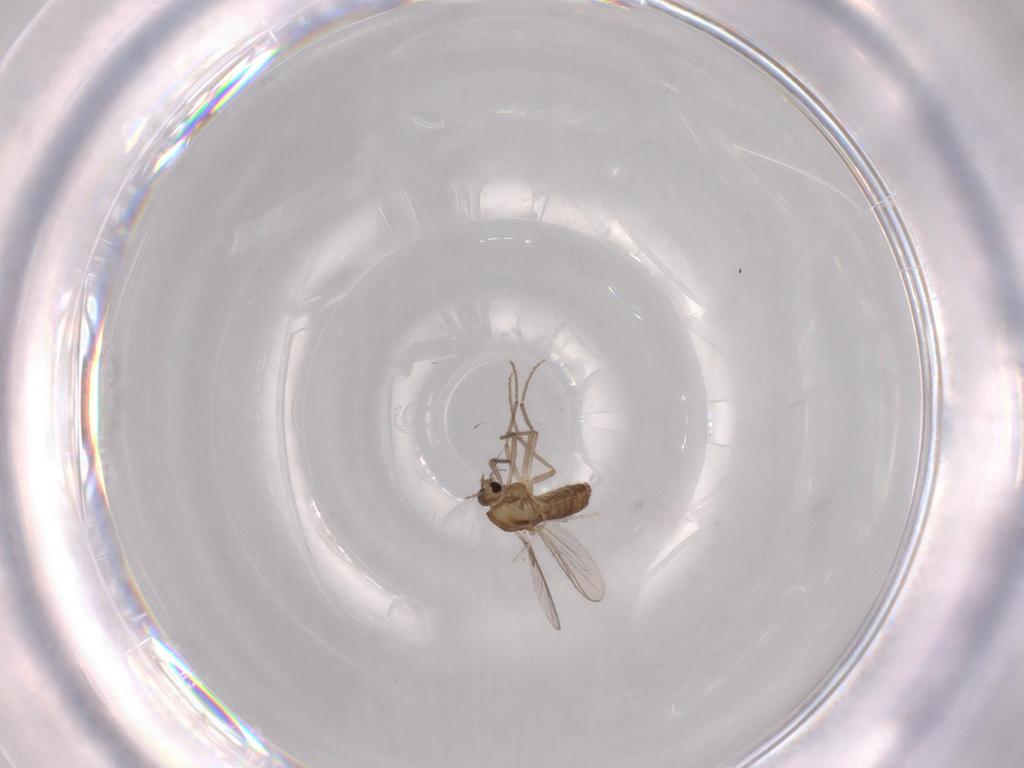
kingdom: Animalia
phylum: Arthropoda
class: Insecta
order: Diptera
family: Chironomidae
